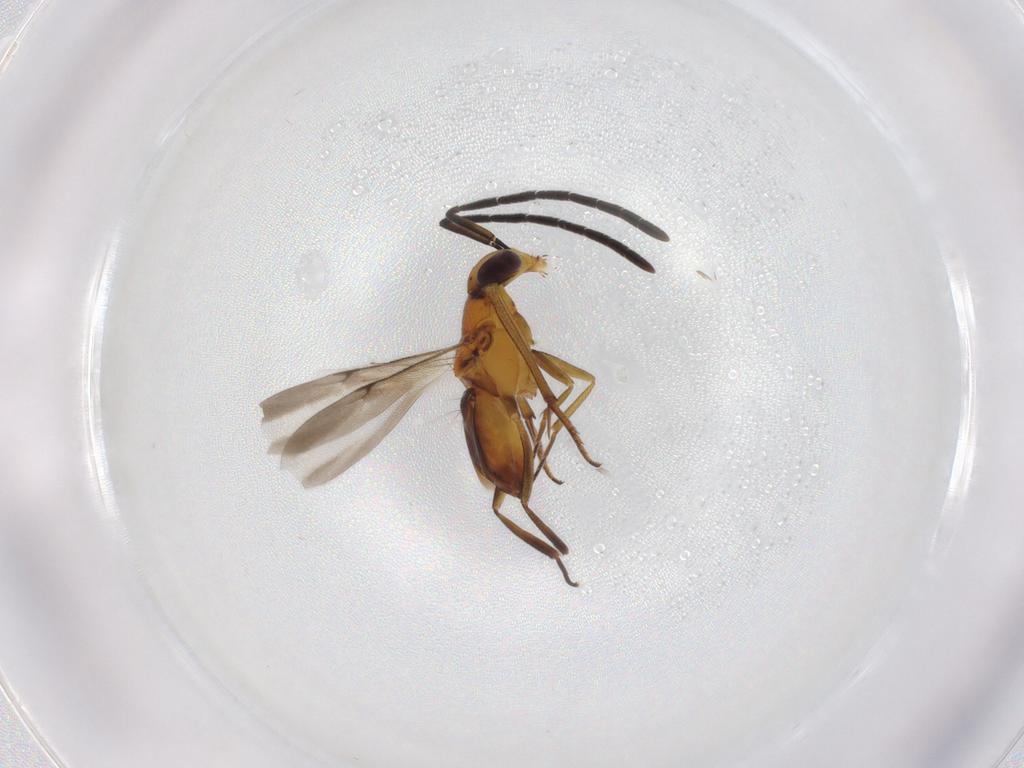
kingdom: Animalia
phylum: Arthropoda
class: Insecta
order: Hymenoptera
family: Eulophidae
